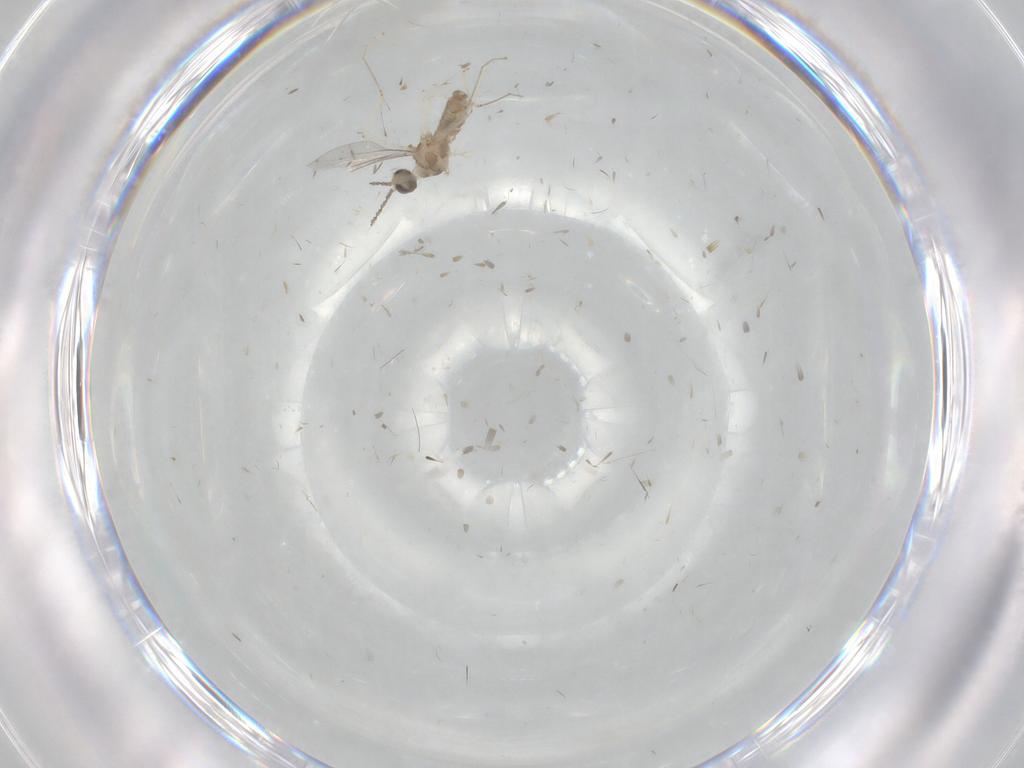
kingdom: Animalia
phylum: Arthropoda
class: Insecta
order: Diptera
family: Cecidomyiidae
